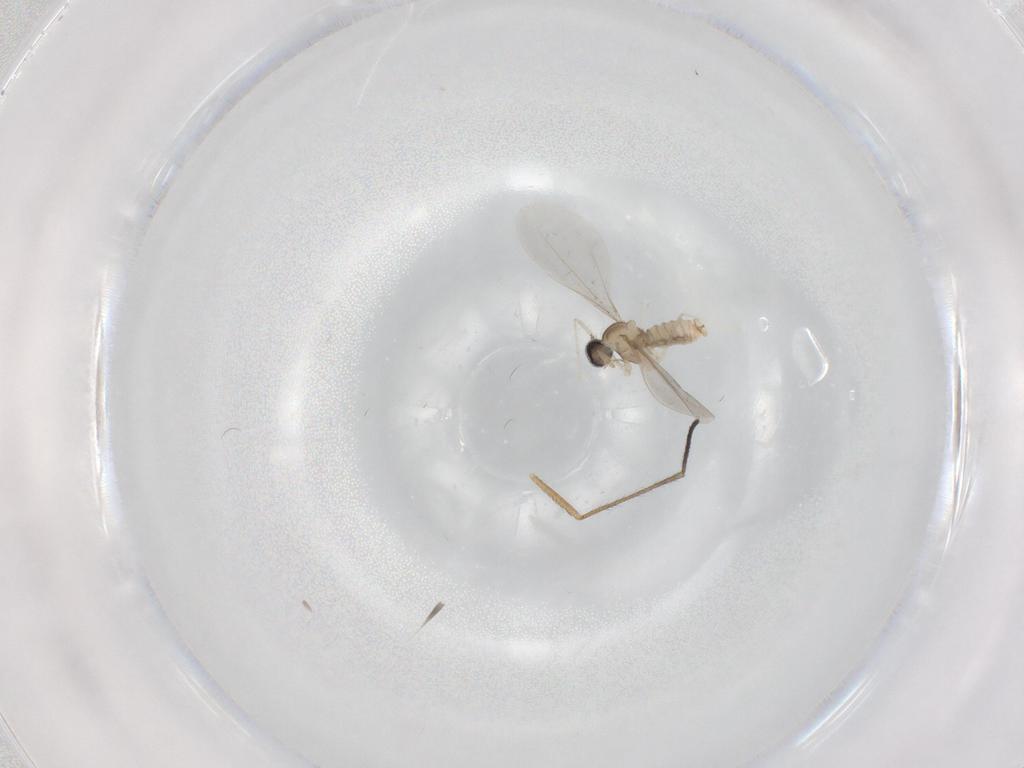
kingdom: Animalia
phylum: Arthropoda
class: Insecta
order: Diptera
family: Cecidomyiidae
